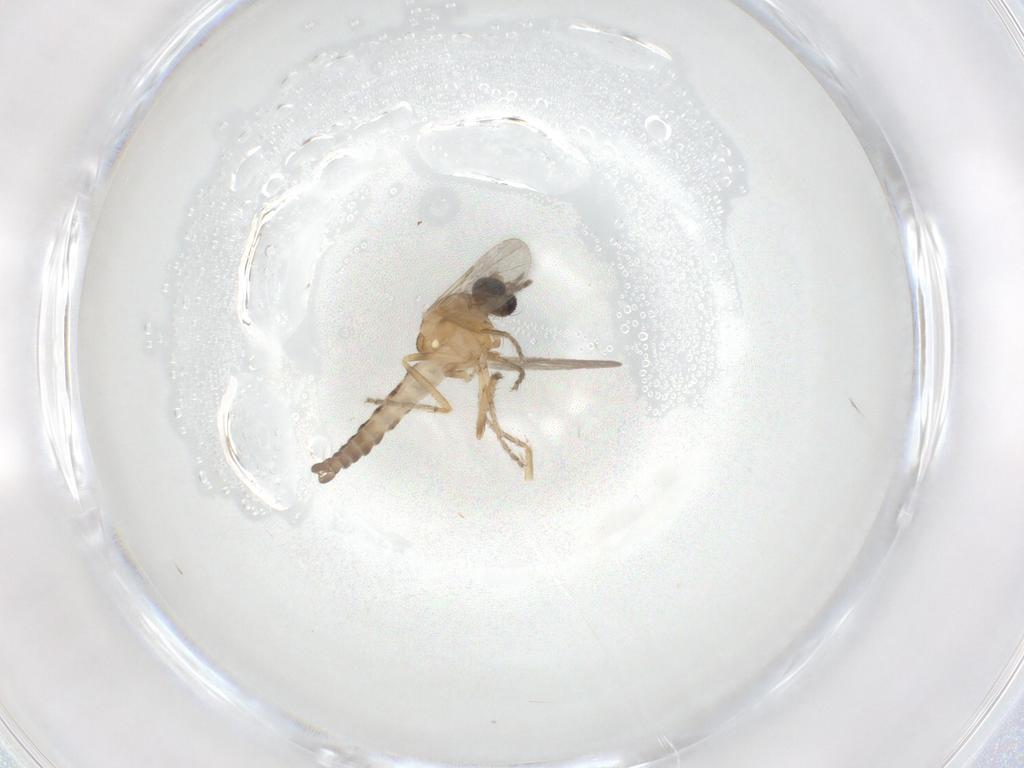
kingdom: Animalia
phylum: Arthropoda
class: Insecta
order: Diptera
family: Ceratopogonidae
